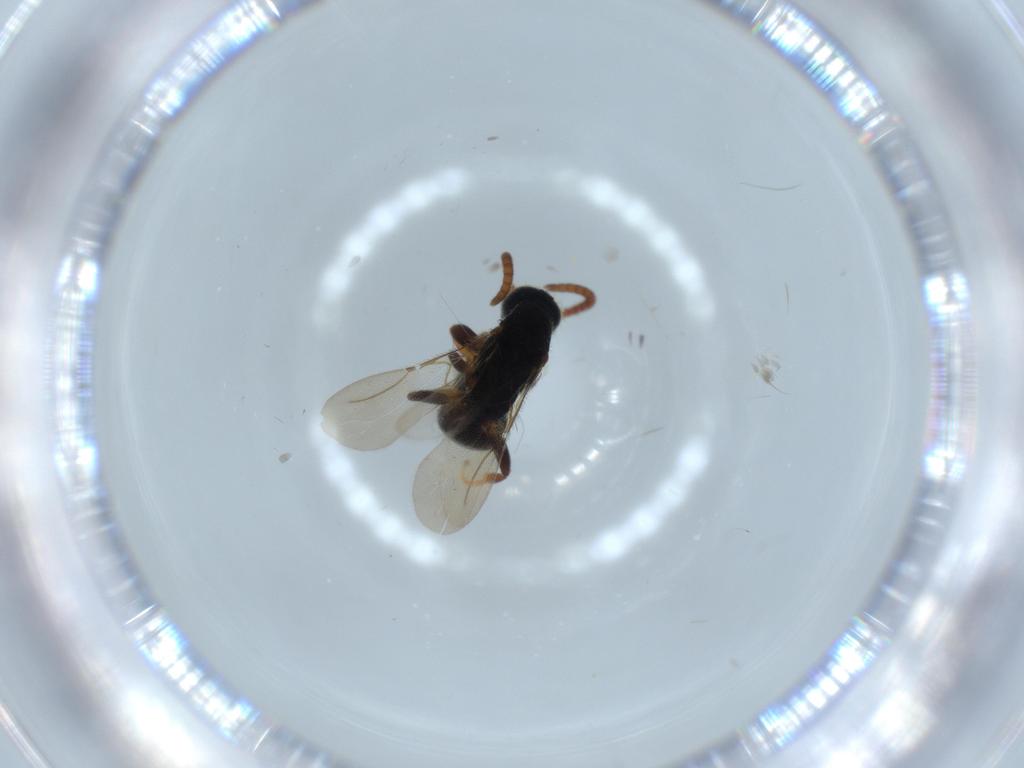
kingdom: Animalia
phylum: Arthropoda
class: Insecta
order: Hymenoptera
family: Bethylidae
